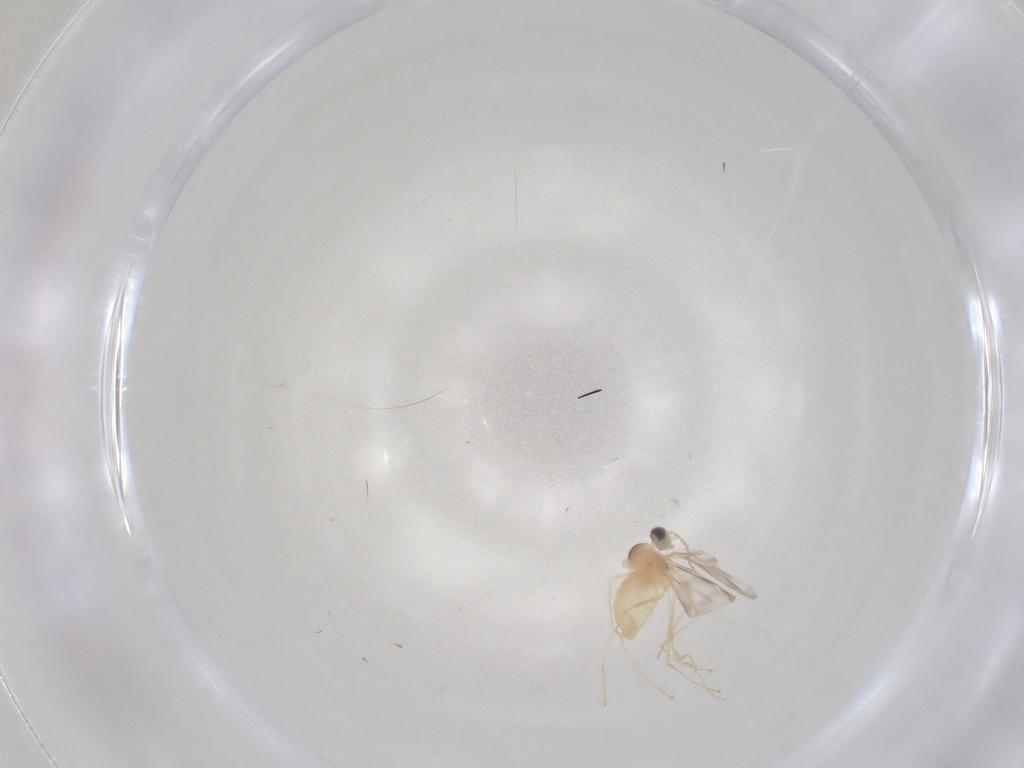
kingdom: Animalia
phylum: Arthropoda
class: Insecta
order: Diptera
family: Cecidomyiidae
